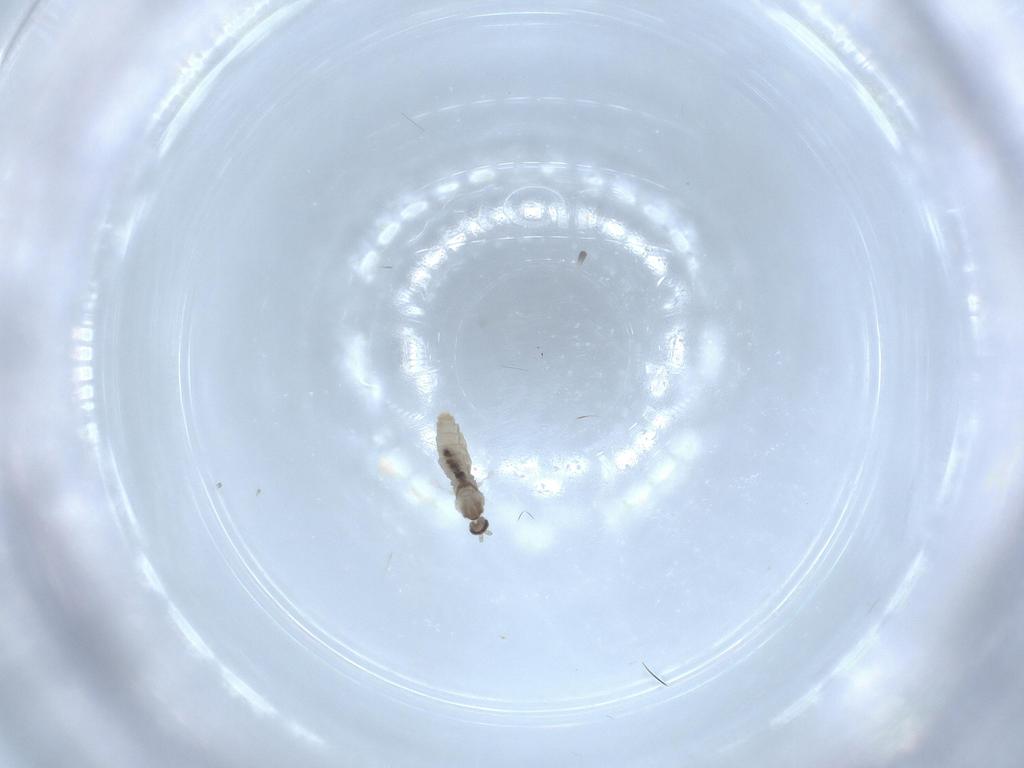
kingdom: Animalia
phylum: Arthropoda
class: Insecta
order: Diptera
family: Chironomidae
